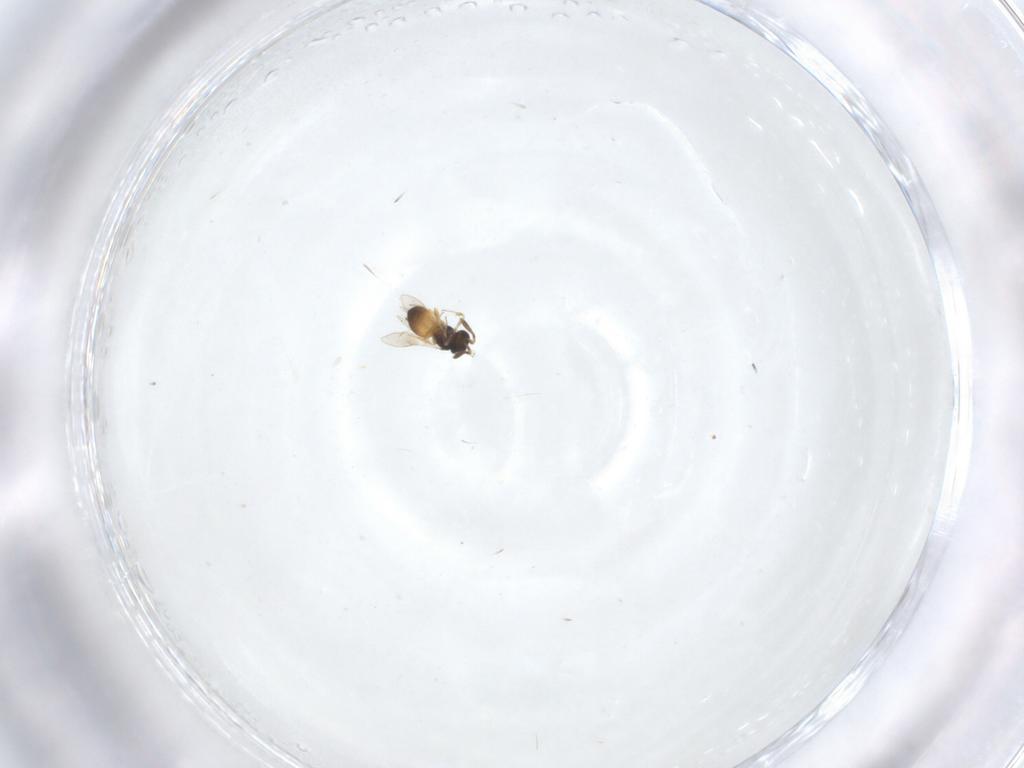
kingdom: Animalia
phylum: Arthropoda
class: Insecta
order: Hymenoptera
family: Scelionidae
